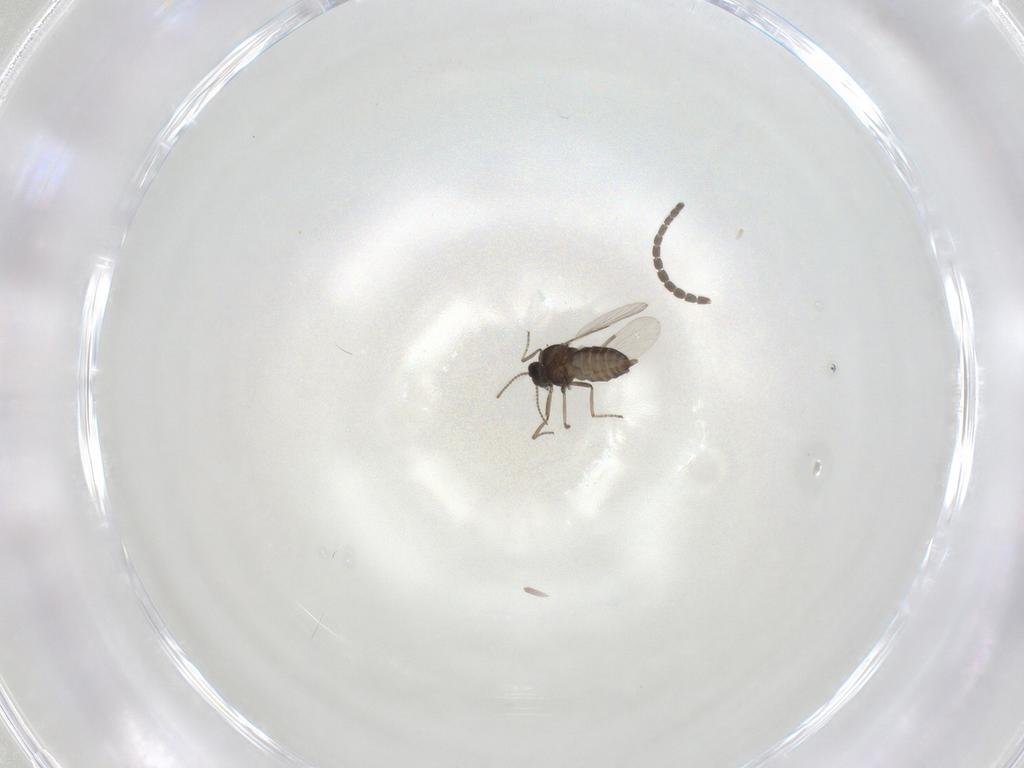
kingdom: Animalia
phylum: Arthropoda
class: Insecta
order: Diptera
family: Sciaridae
